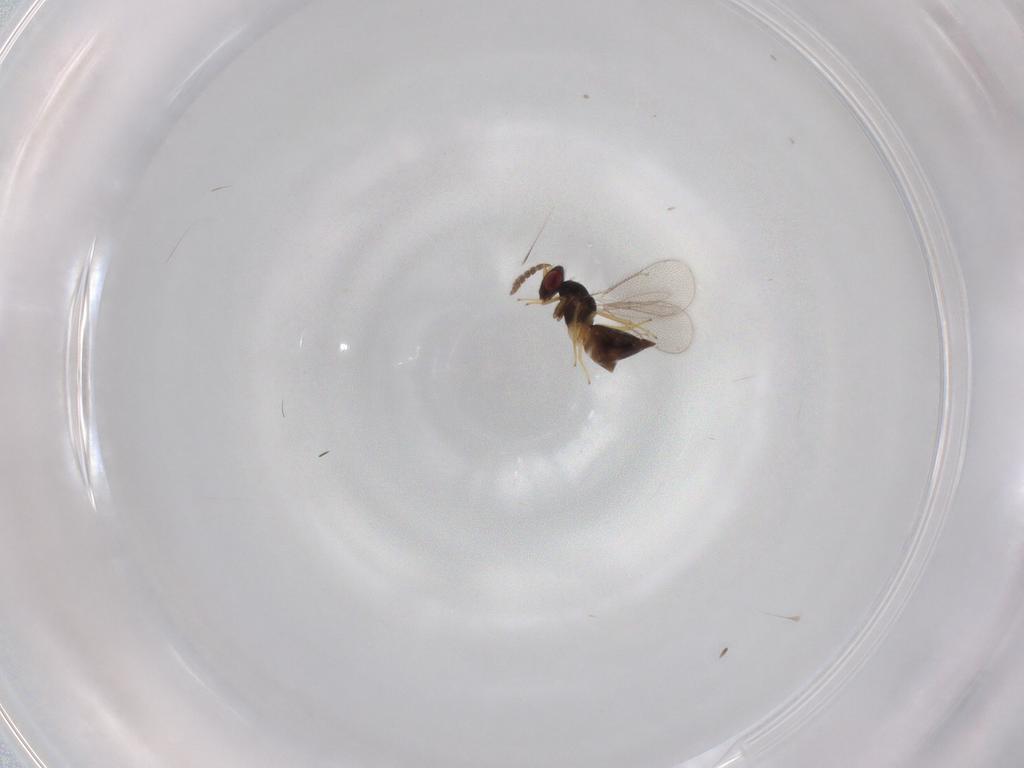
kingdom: Animalia
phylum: Arthropoda
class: Insecta
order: Hymenoptera
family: Eulophidae
